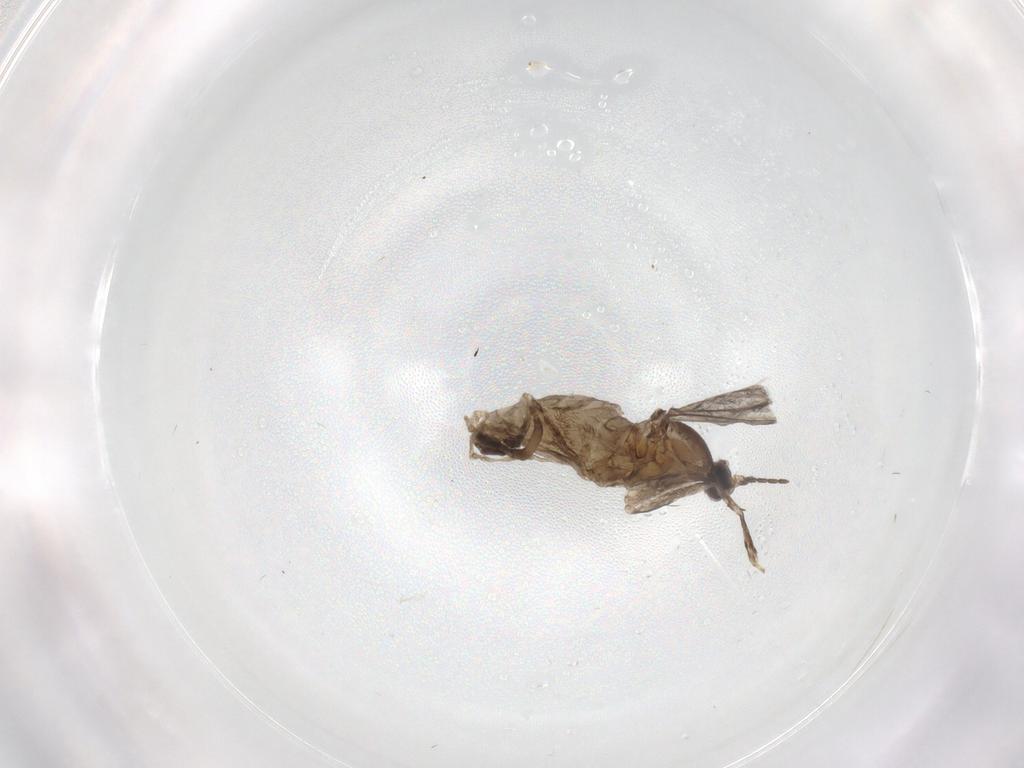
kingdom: Animalia
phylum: Arthropoda
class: Insecta
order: Diptera
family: Cecidomyiidae
